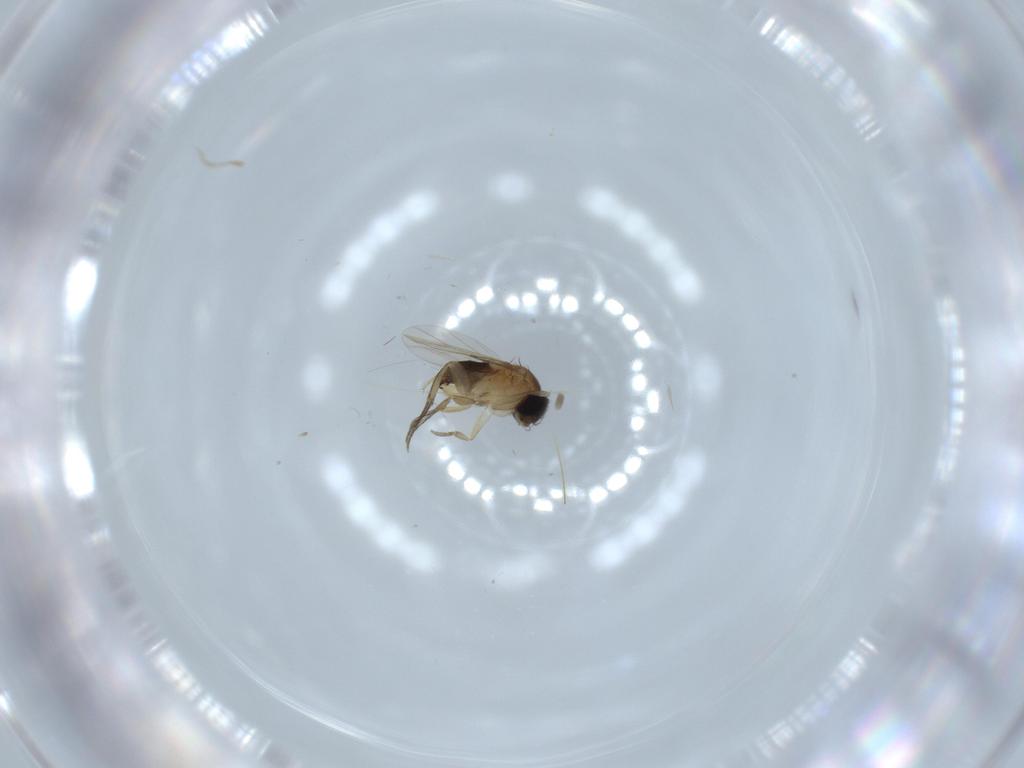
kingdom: Animalia
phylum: Arthropoda
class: Insecta
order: Diptera
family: Phoridae
